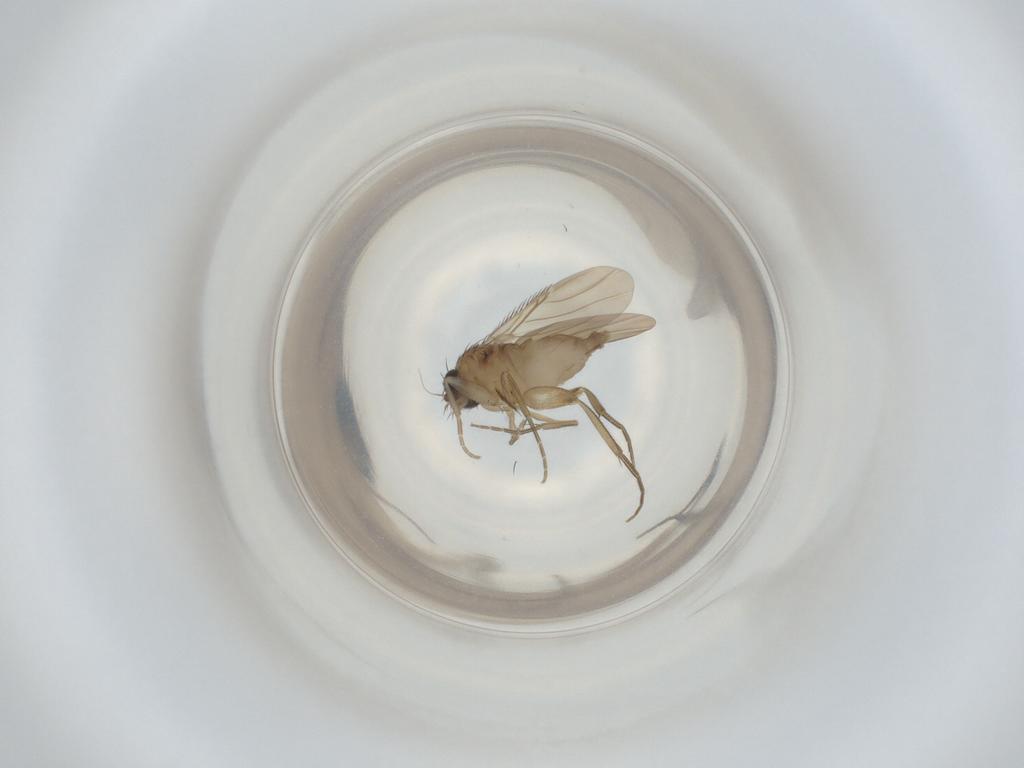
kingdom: Animalia
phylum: Arthropoda
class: Insecta
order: Diptera
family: Phoridae
